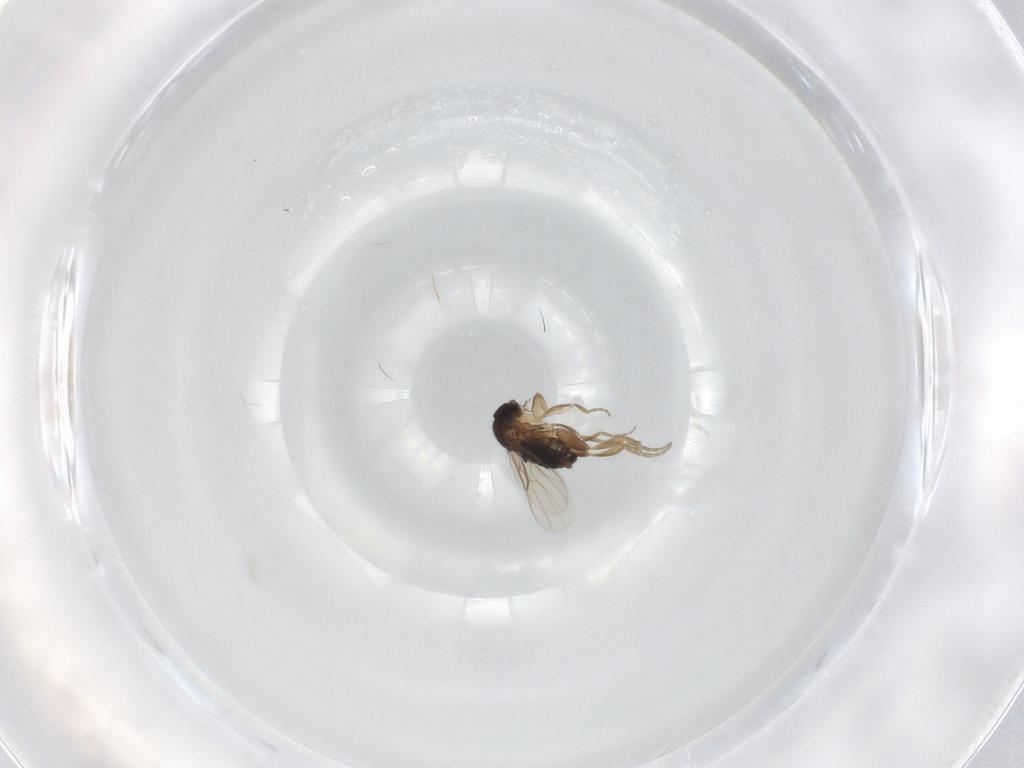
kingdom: Animalia
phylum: Arthropoda
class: Insecta
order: Diptera
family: Phoridae
